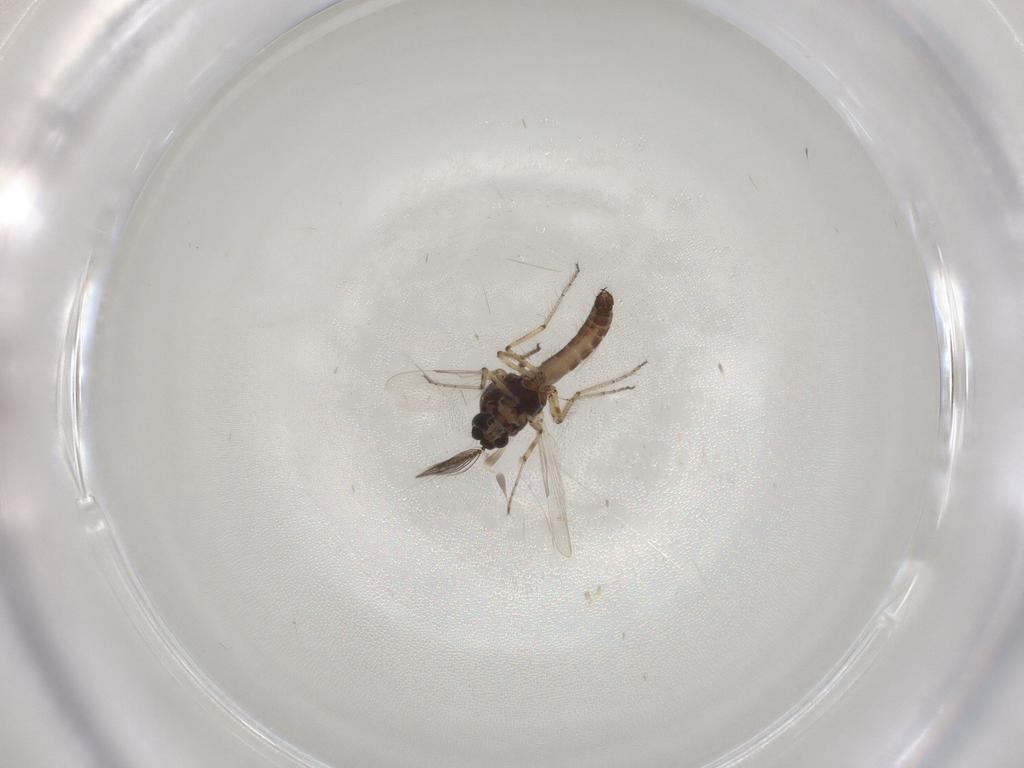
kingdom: Animalia
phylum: Arthropoda
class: Insecta
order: Diptera
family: Ceratopogonidae
